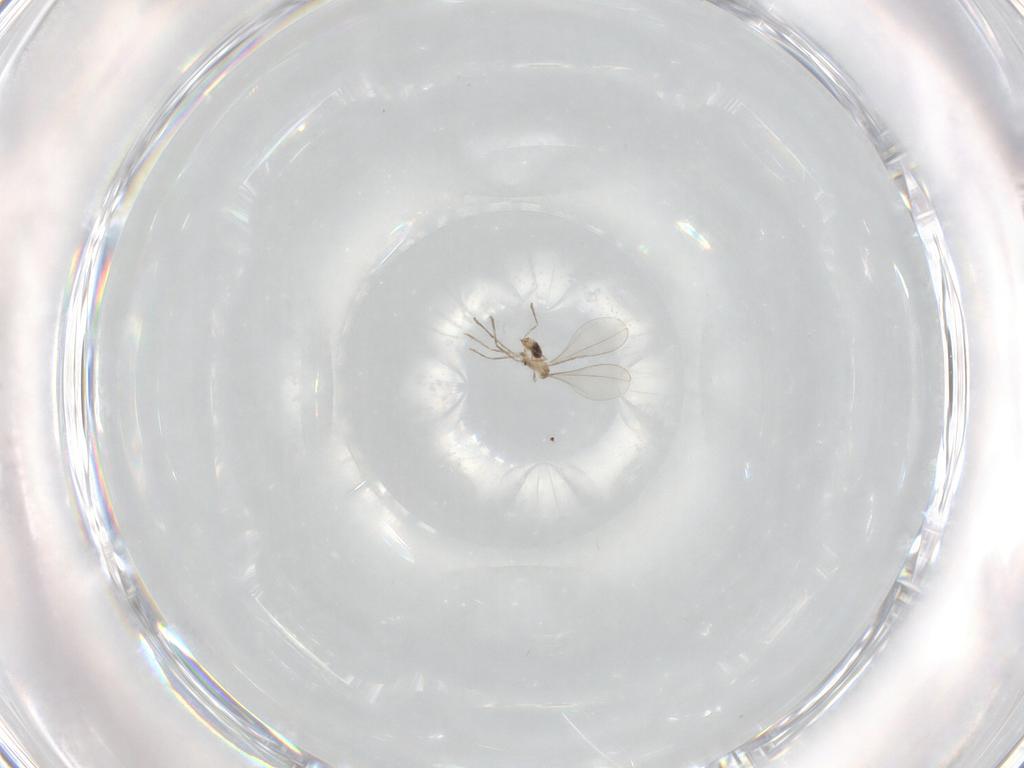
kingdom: Animalia
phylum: Arthropoda
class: Insecta
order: Diptera
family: Cecidomyiidae
